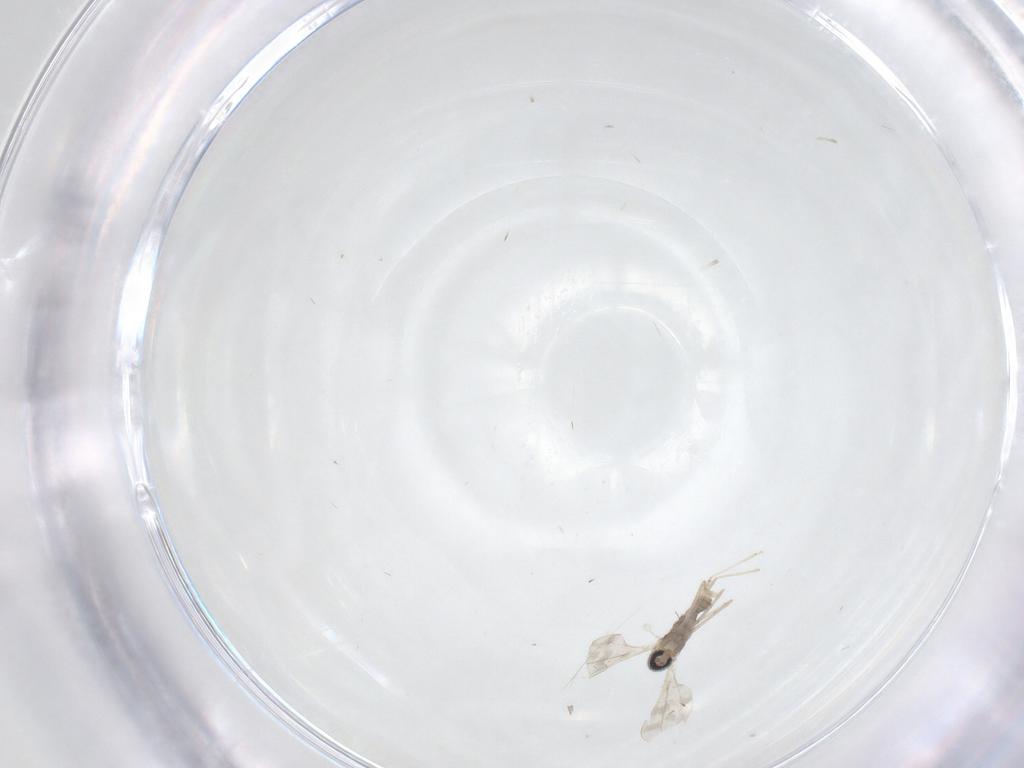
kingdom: Animalia
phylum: Arthropoda
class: Insecta
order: Diptera
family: Cecidomyiidae
